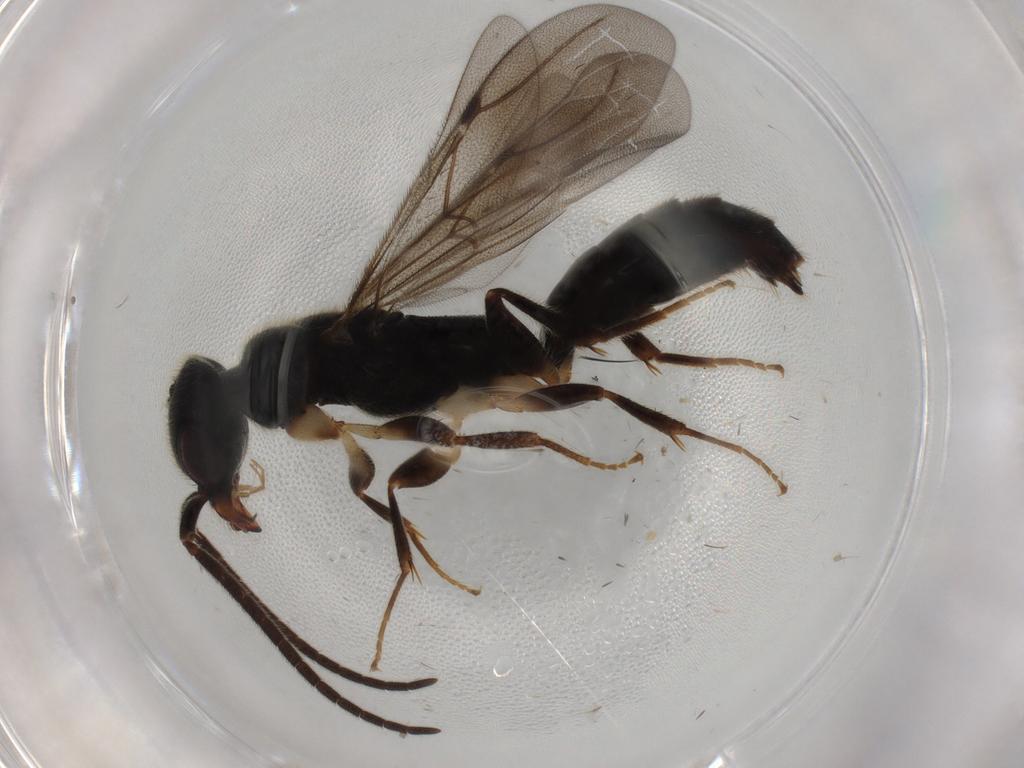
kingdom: Animalia
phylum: Arthropoda
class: Insecta
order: Hymenoptera
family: Bethylidae
